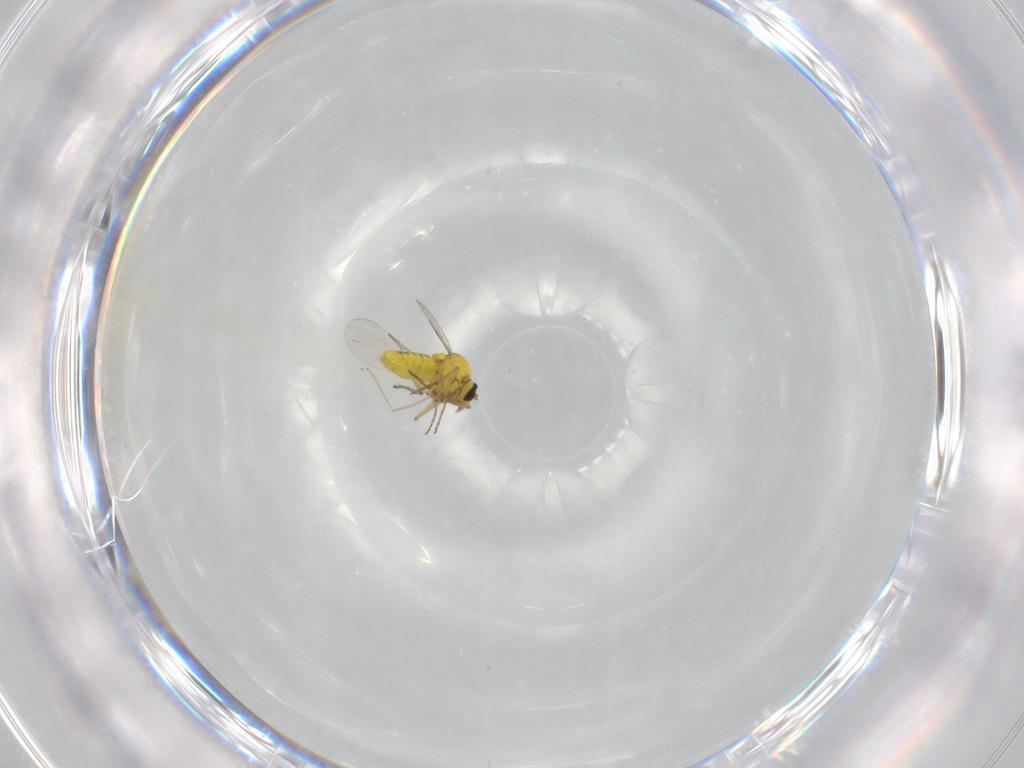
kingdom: Animalia
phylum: Arthropoda
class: Insecta
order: Diptera
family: Ceratopogonidae
